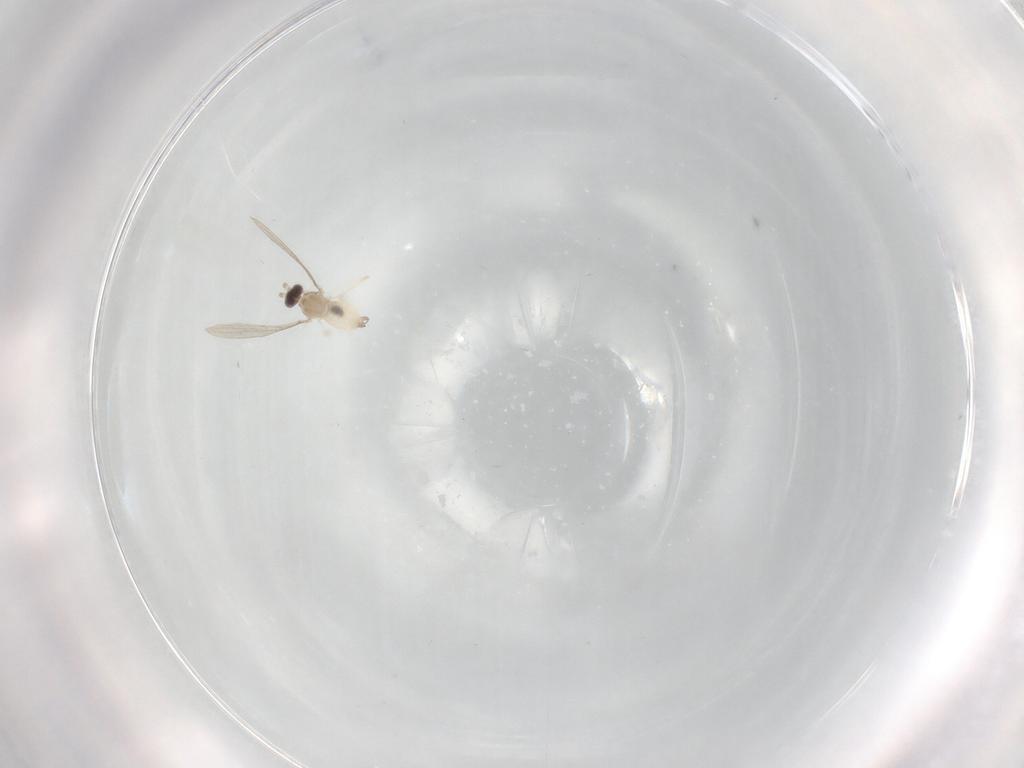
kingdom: Animalia
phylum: Arthropoda
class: Insecta
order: Diptera
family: Cecidomyiidae
